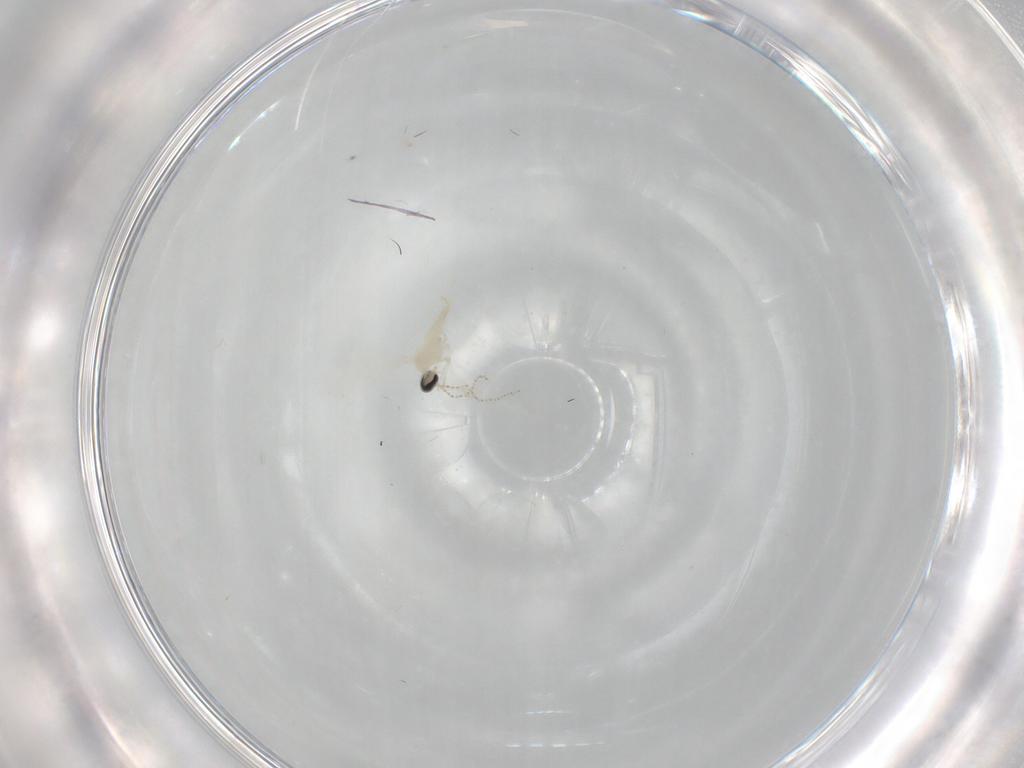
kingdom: Animalia
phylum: Arthropoda
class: Insecta
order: Diptera
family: Cecidomyiidae
